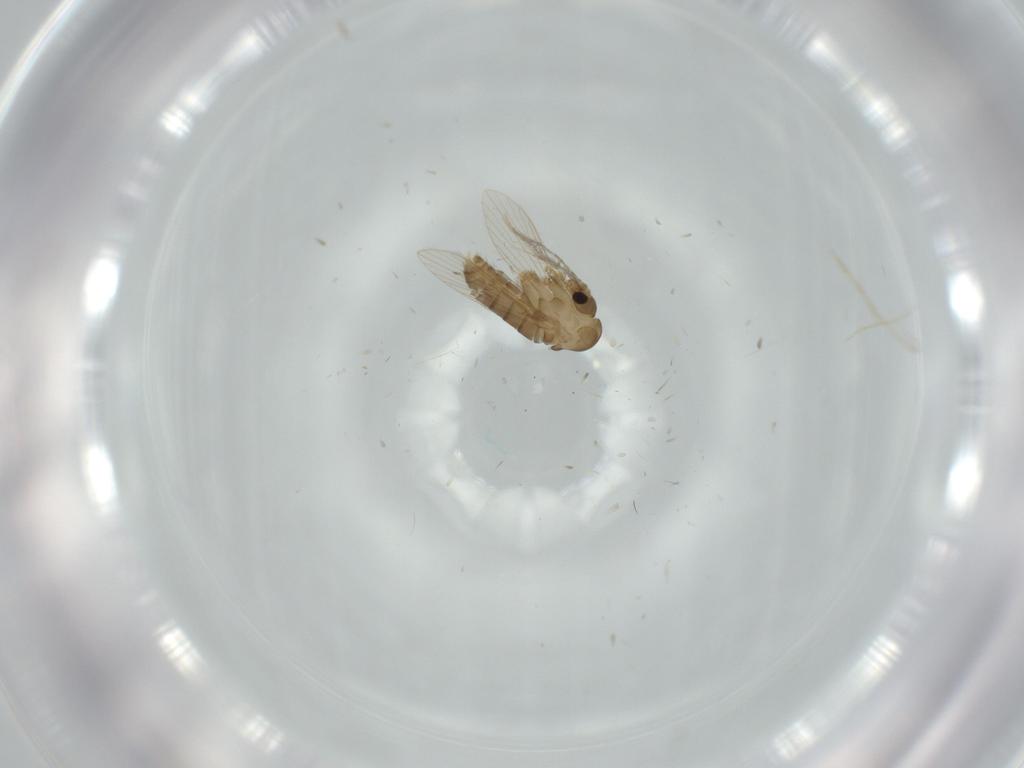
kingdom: Animalia
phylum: Arthropoda
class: Insecta
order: Diptera
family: Psychodidae
